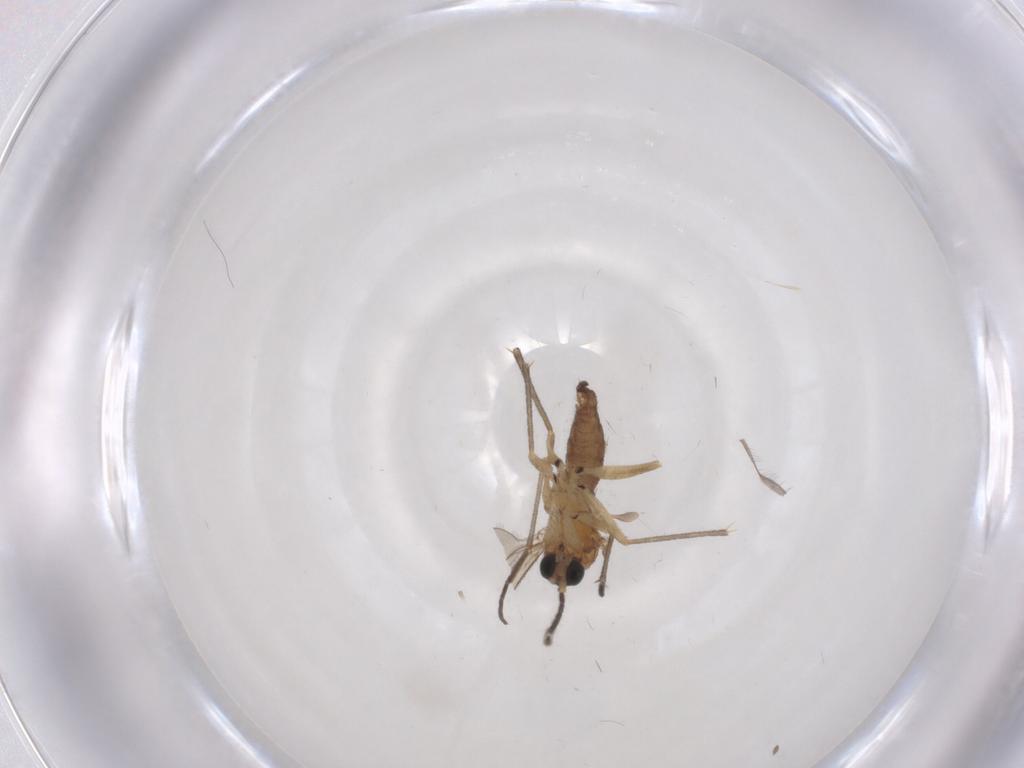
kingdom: Animalia
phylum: Arthropoda
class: Insecta
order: Diptera
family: Sciaridae
